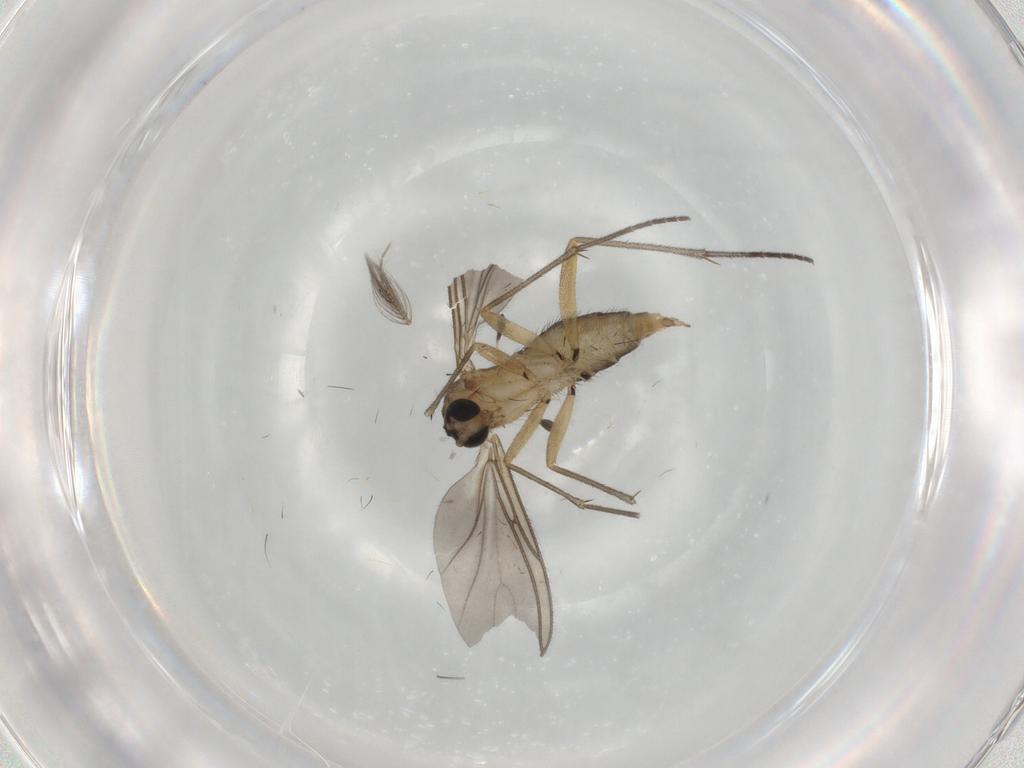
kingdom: Animalia
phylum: Arthropoda
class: Insecta
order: Diptera
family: Sciaridae
